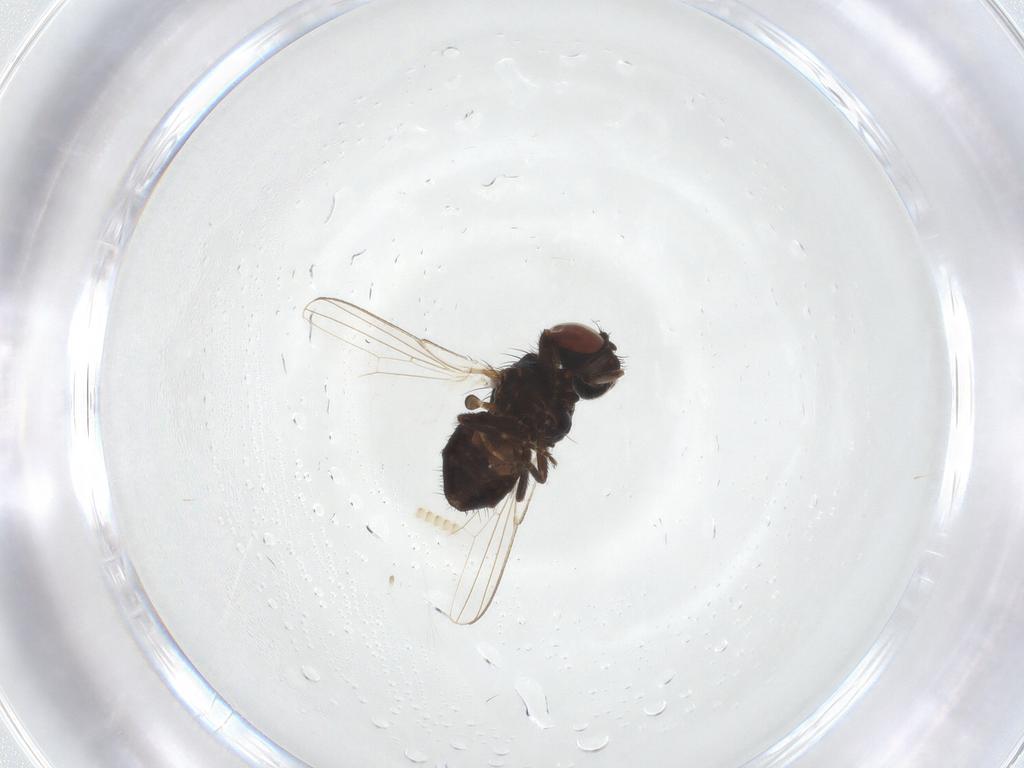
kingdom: Animalia
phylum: Arthropoda
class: Insecta
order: Diptera
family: Milichiidae
